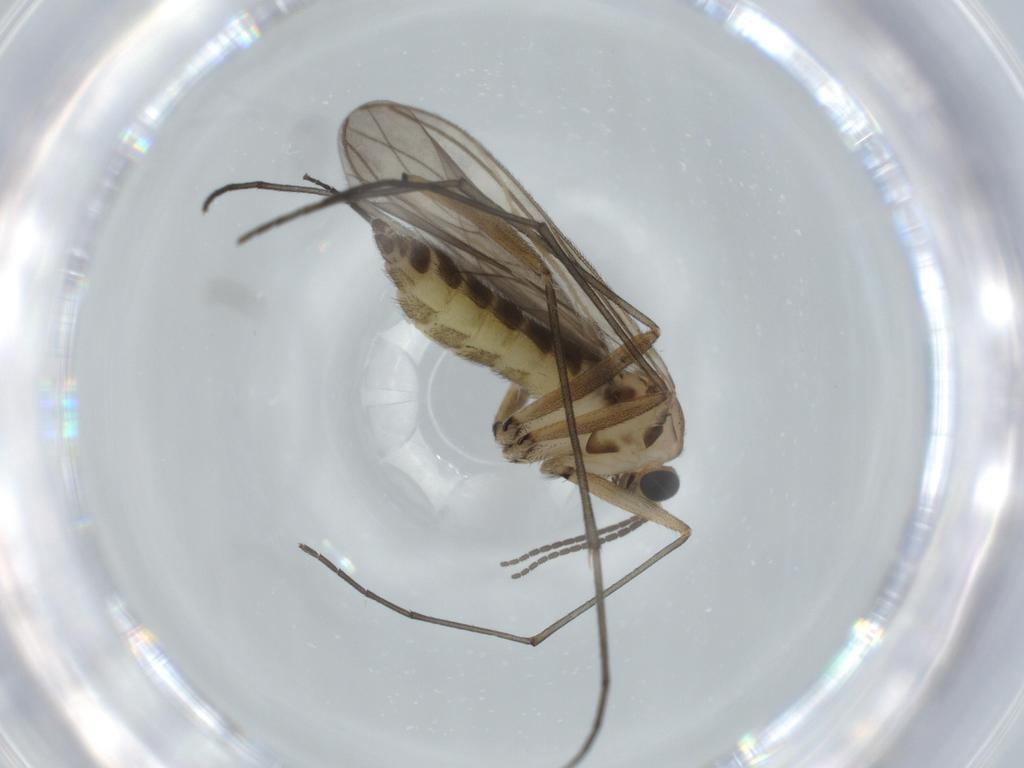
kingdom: Animalia
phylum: Arthropoda
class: Insecta
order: Diptera
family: Sciaridae
